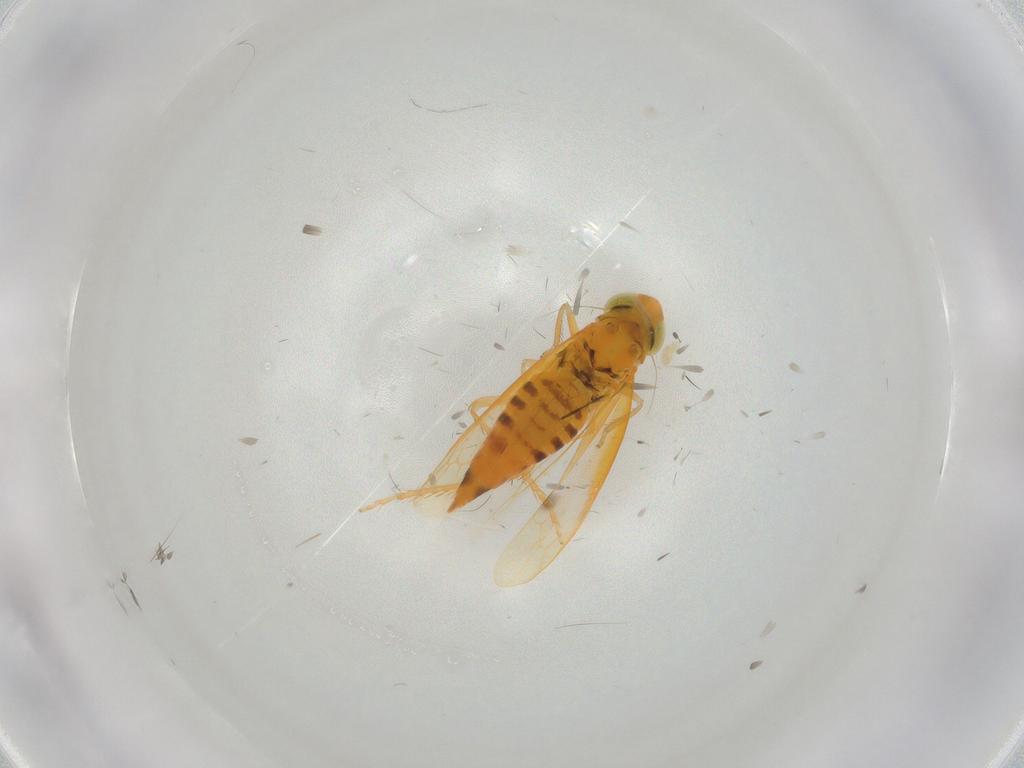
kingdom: Animalia
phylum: Arthropoda
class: Insecta
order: Hemiptera
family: Cicadellidae
